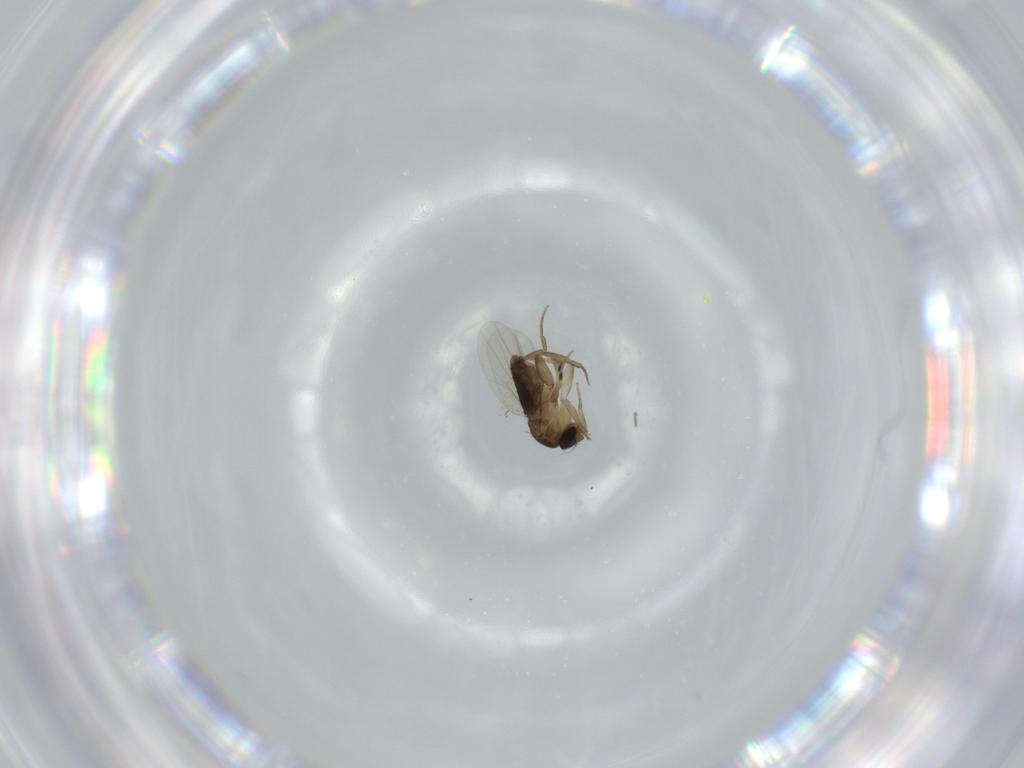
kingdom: Animalia
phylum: Arthropoda
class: Insecta
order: Diptera
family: Phoridae
